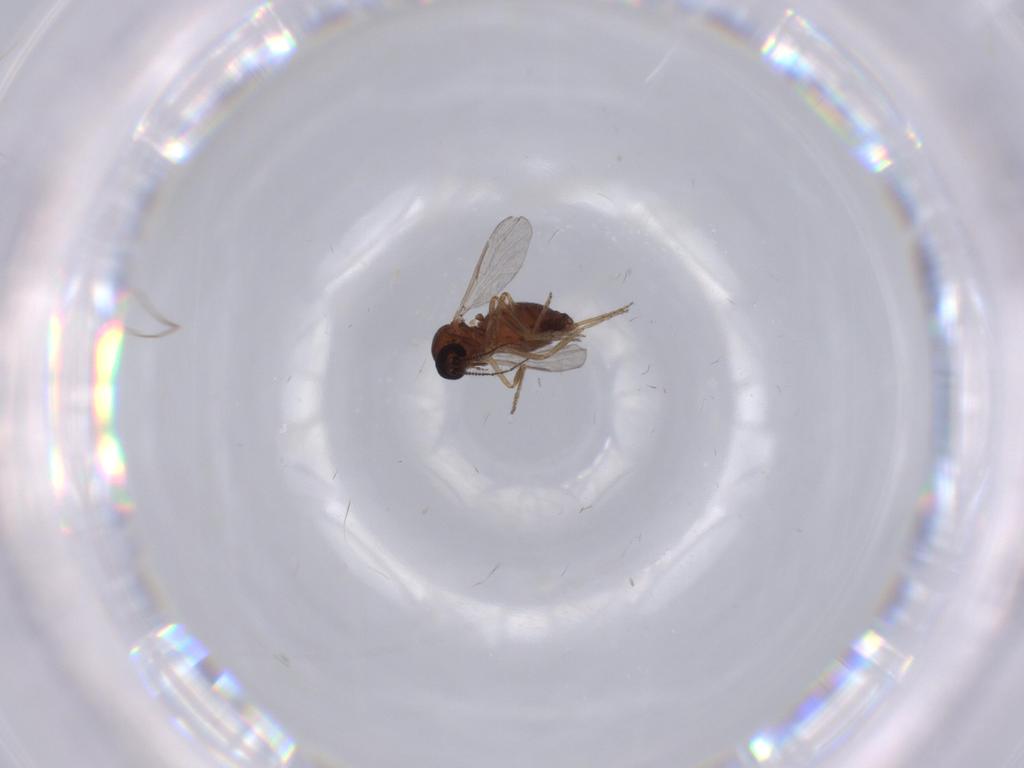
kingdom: Animalia
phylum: Arthropoda
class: Insecta
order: Diptera
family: Ceratopogonidae
